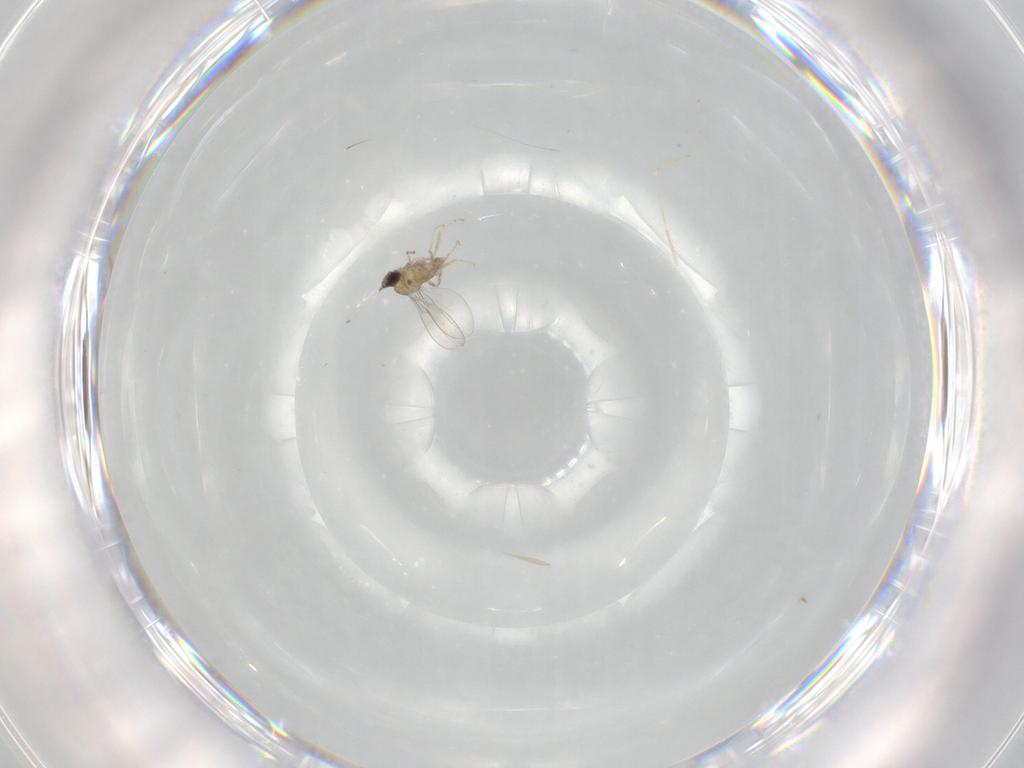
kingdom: Animalia
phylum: Arthropoda
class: Insecta
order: Diptera
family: Cecidomyiidae
